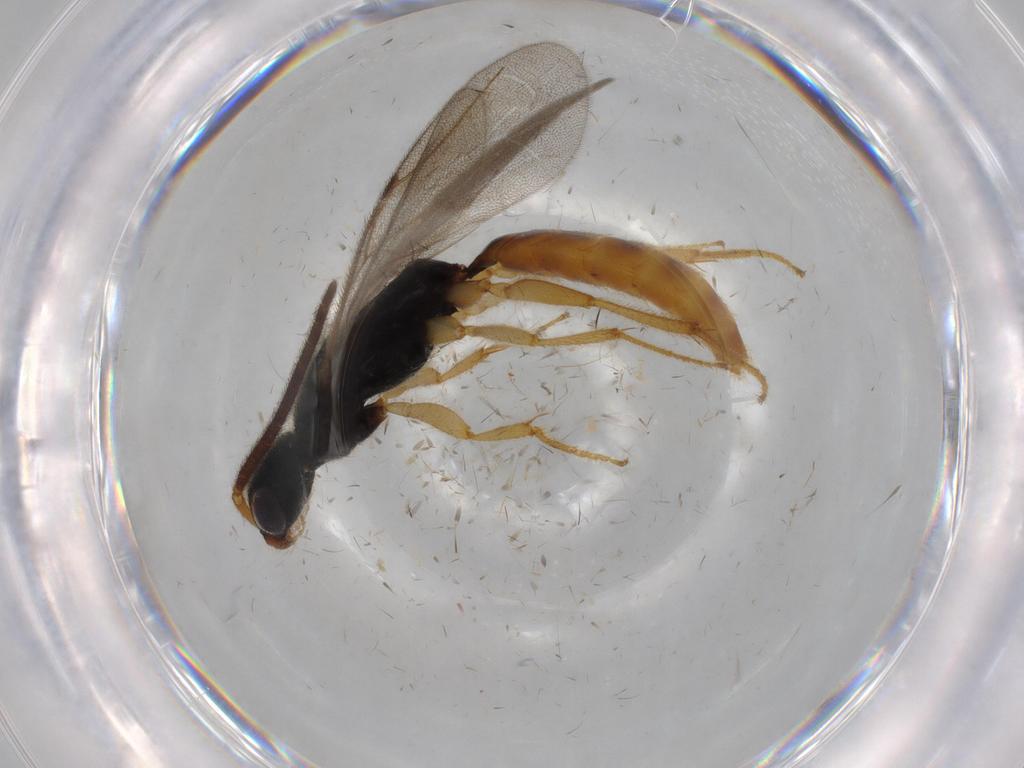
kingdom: Animalia
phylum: Arthropoda
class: Insecta
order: Hymenoptera
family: Bethylidae
